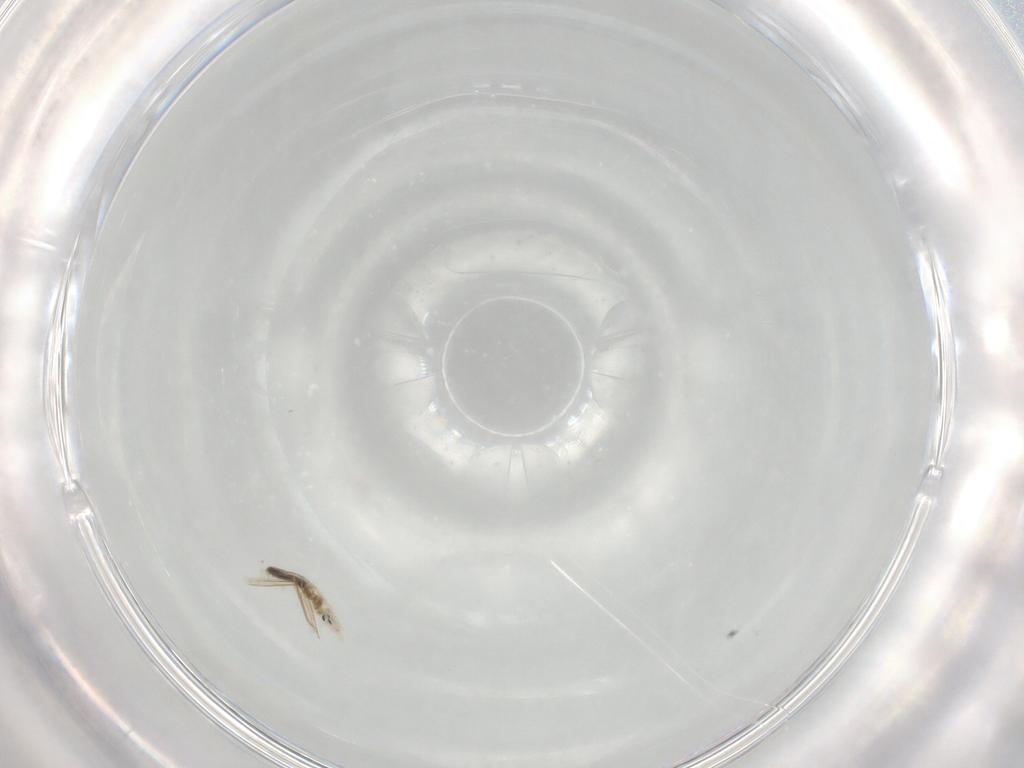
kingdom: Animalia
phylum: Arthropoda
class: Collembola
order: Entomobryomorpha
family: Entomobryidae
